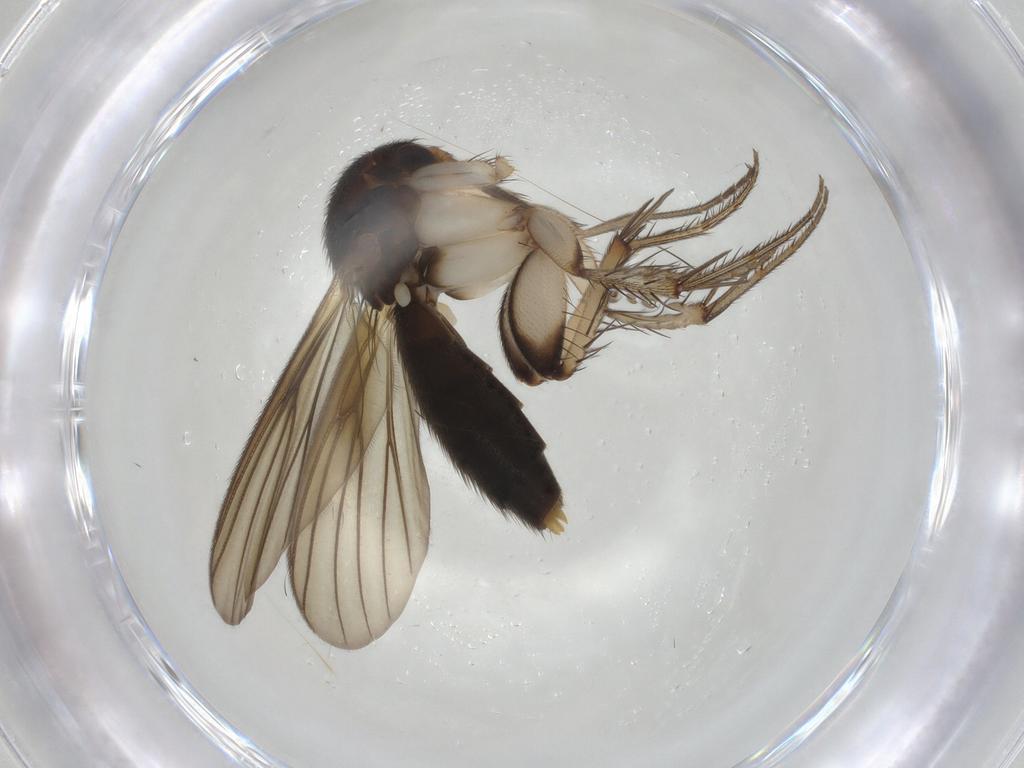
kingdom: Animalia
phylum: Arthropoda
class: Insecta
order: Diptera
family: Mycetophilidae
